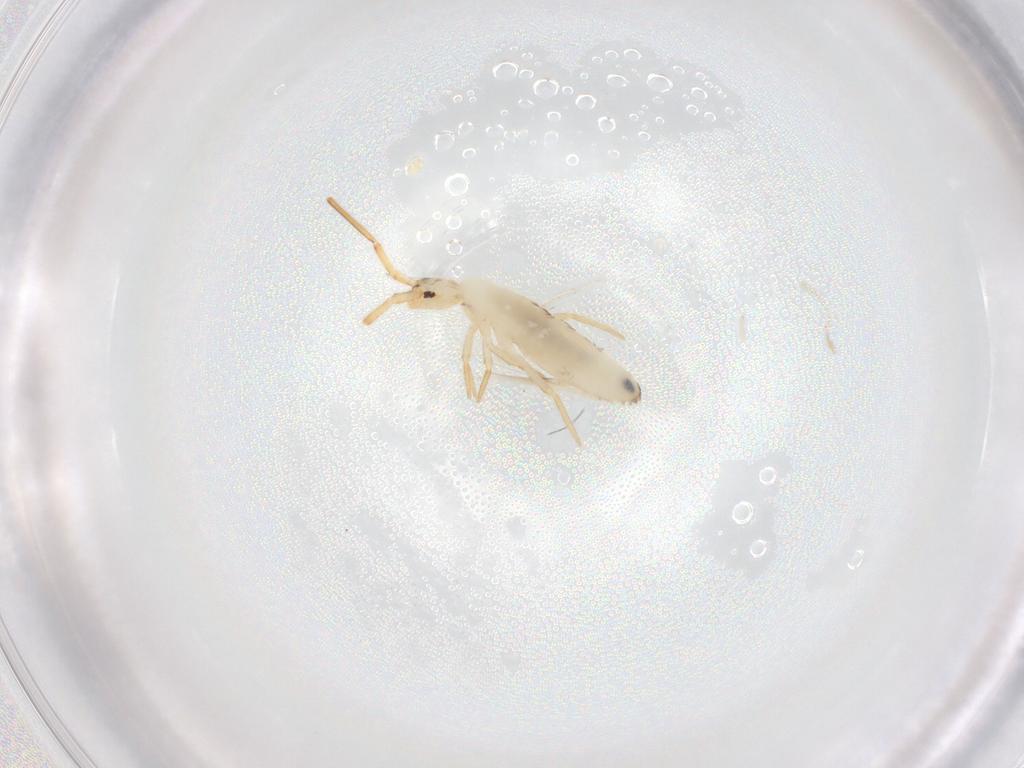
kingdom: Animalia
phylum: Arthropoda
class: Collembola
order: Entomobryomorpha
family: Entomobryidae
